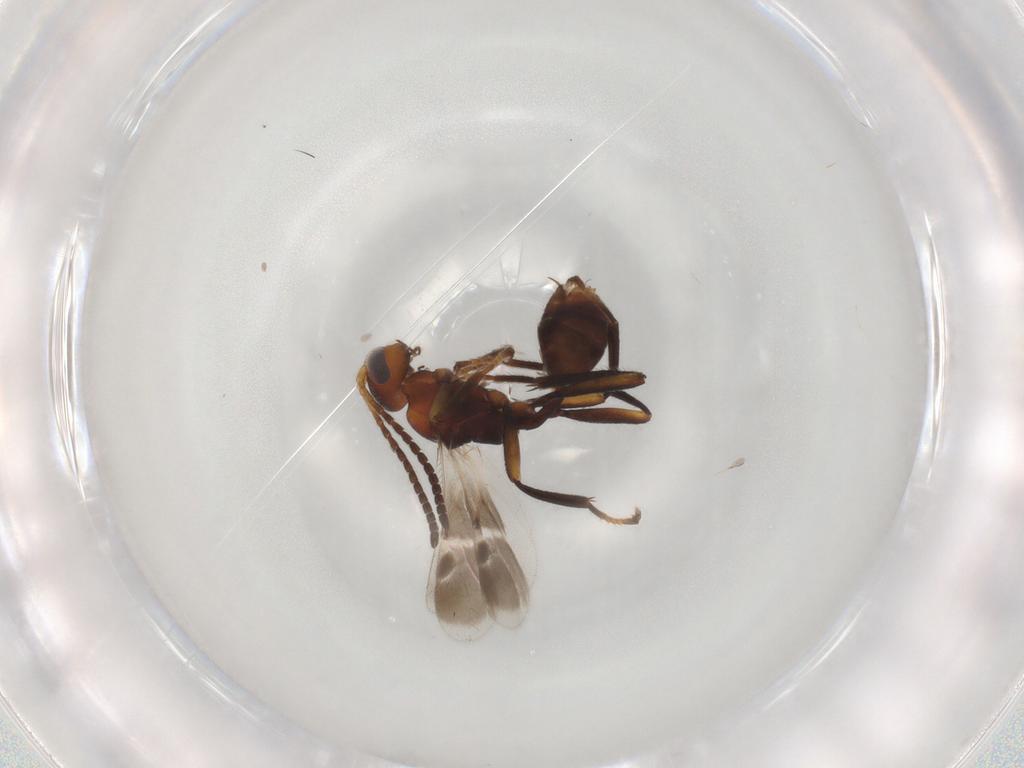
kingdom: Animalia
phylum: Arthropoda
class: Insecta
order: Hymenoptera
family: Braconidae
